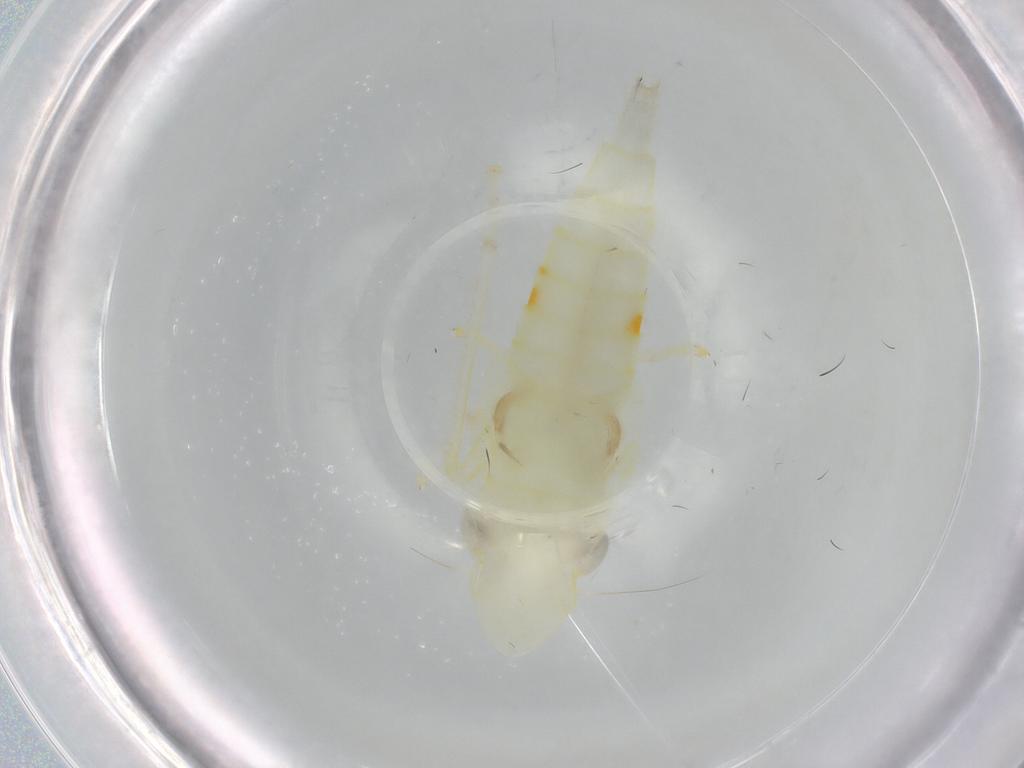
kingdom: Animalia
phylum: Arthropoda
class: Insecta
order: Hemiptera
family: Cicadellidae
